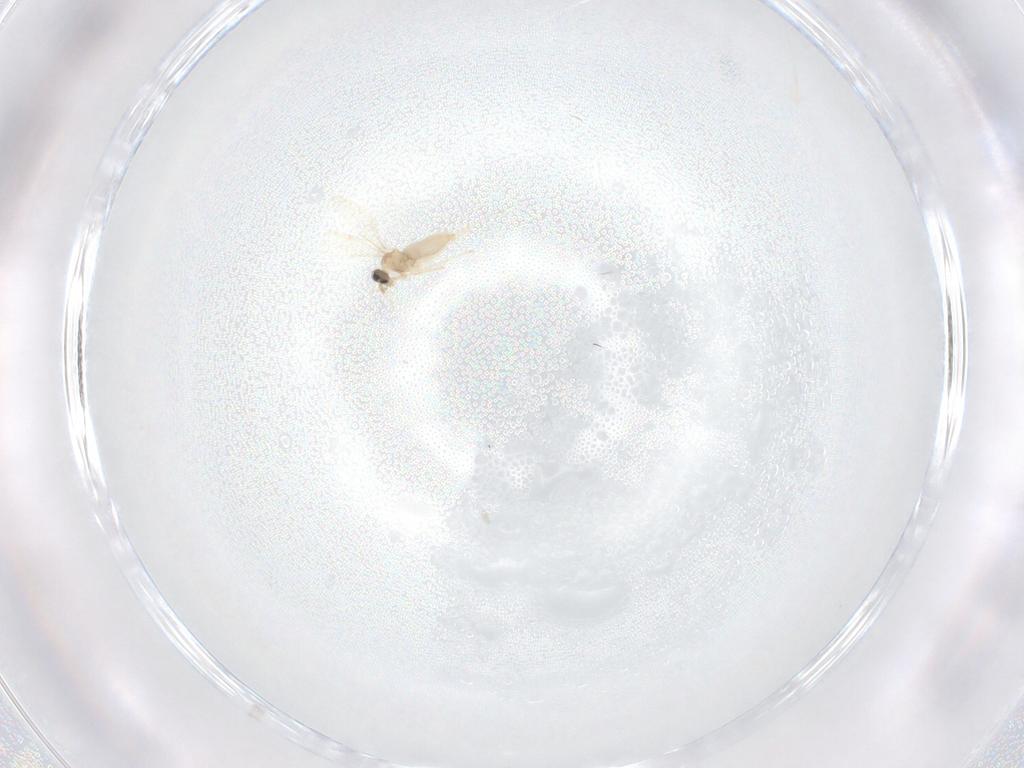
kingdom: Animalia
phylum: Arthropoda
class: Insecta
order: Diptera
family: Cecidomyiidae
